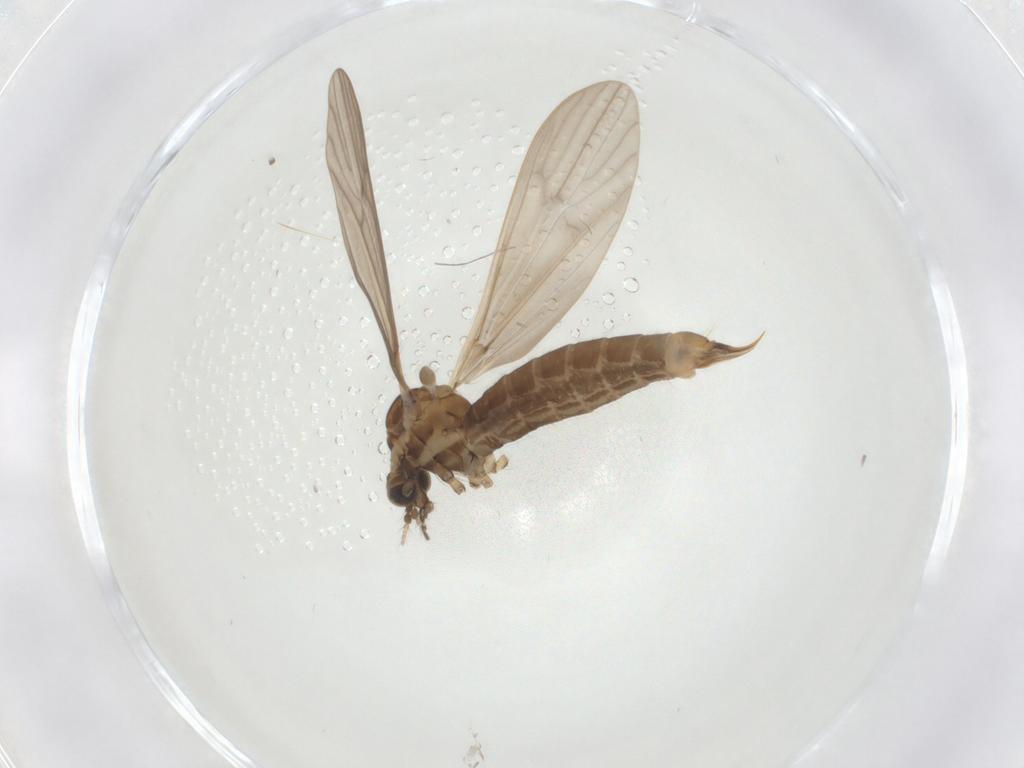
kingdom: Animalia
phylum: Arthropoda
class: Insecta
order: Diptera
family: Limoniidae
